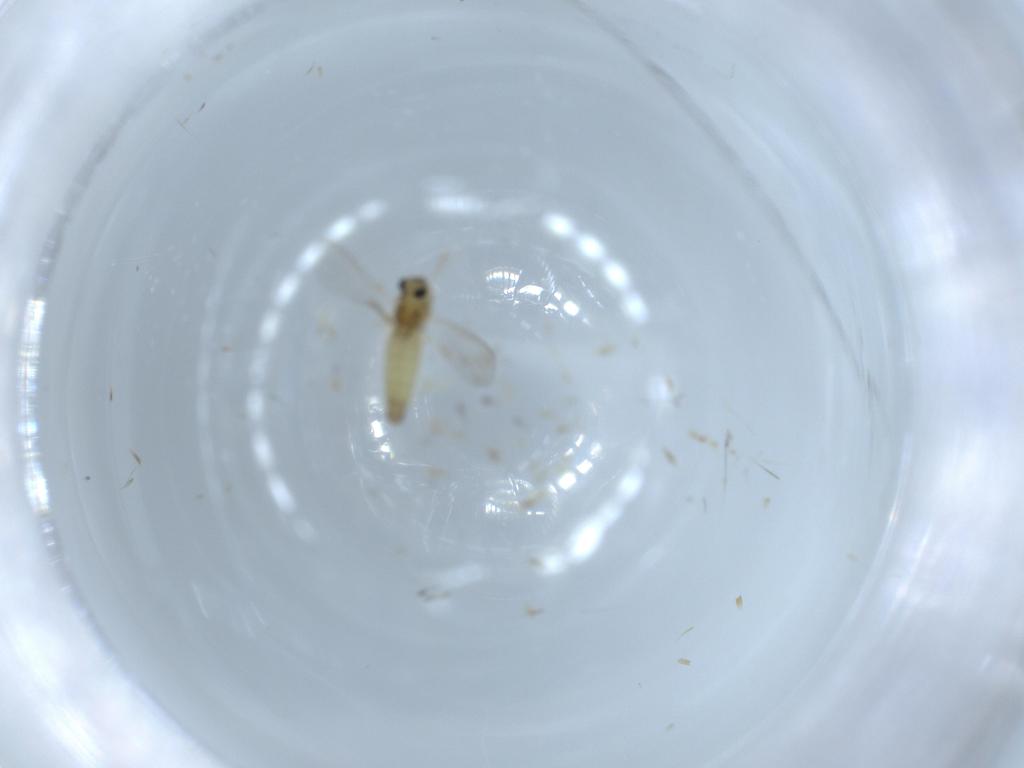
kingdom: Animalia
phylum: Arthropoda
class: Insecta
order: Diptera
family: Chironomidae
